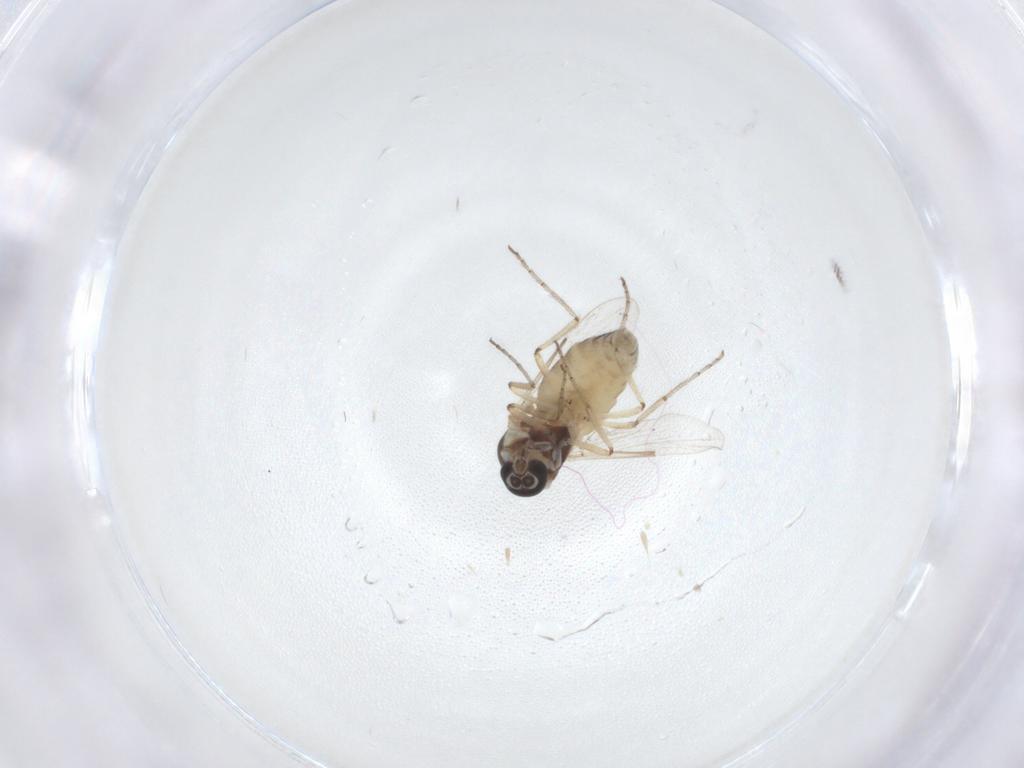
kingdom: Animalia
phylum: Arthropoda
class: Insecta
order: Diptera
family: Ceratopogonidae
